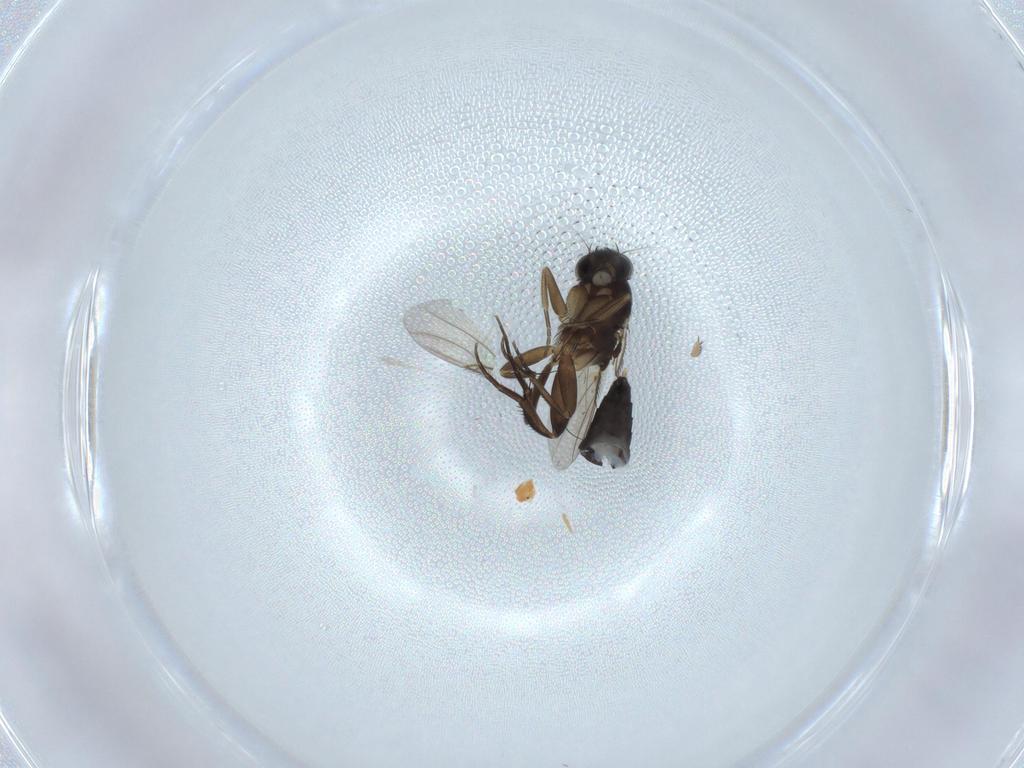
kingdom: Animalia
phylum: Arthropoda
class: Insecta
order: Diptera
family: Phoridae
